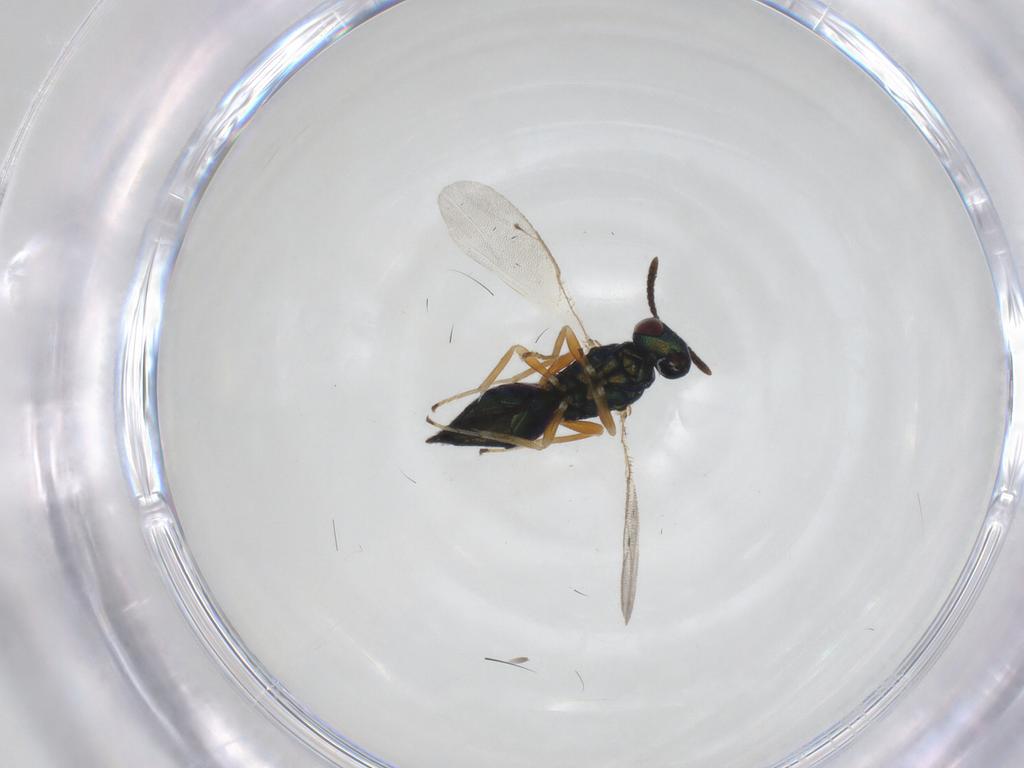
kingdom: Animalia
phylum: Arthropoda
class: Insecta
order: Hymenoptera
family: Pteromalidae
